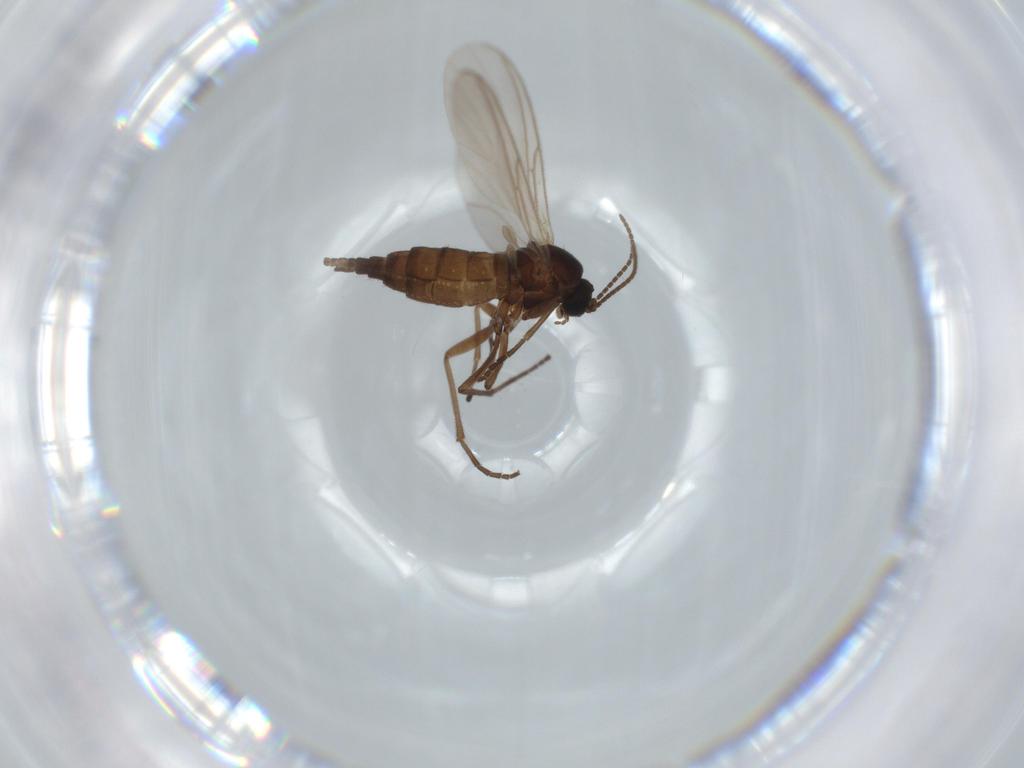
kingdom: Animalia
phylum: Arthropoda
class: Insecta
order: Diptera
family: Sciaridae
